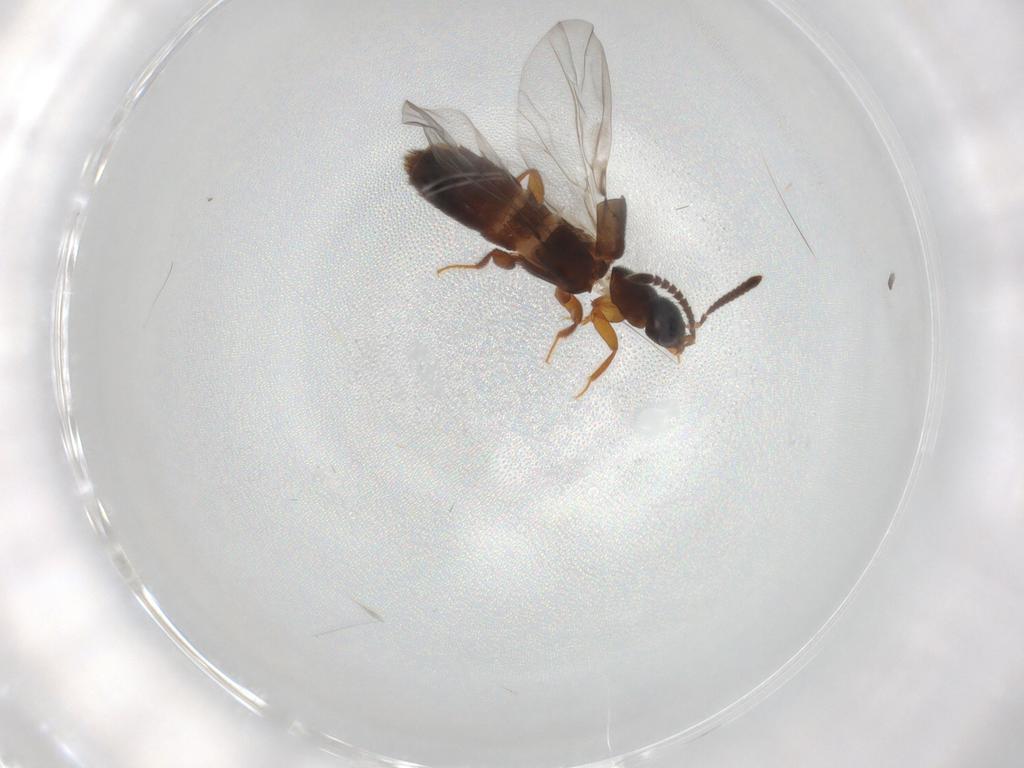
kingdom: Animalia
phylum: Arthropoda
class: Insecta
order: Coleoptera
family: Staphylinidae
